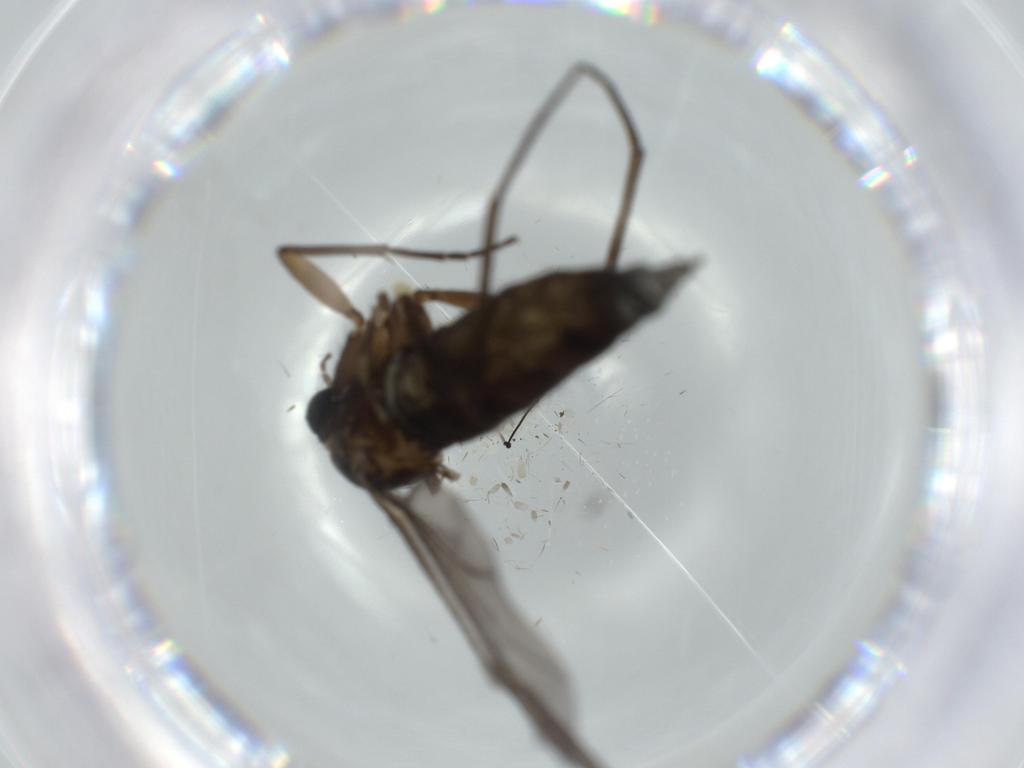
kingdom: Animalia
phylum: Arthropoda
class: Insecta
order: Diptera
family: Sciaridae
